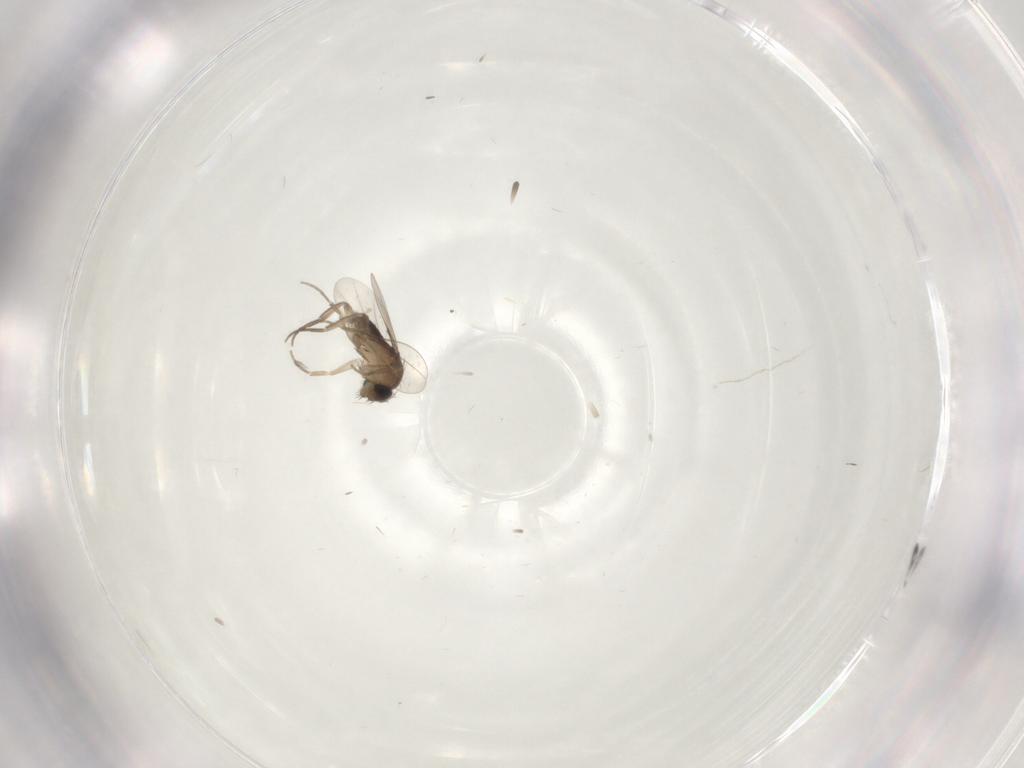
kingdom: Animalia
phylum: Arthropoda
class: Insecta
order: Diptera
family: Phoridae
